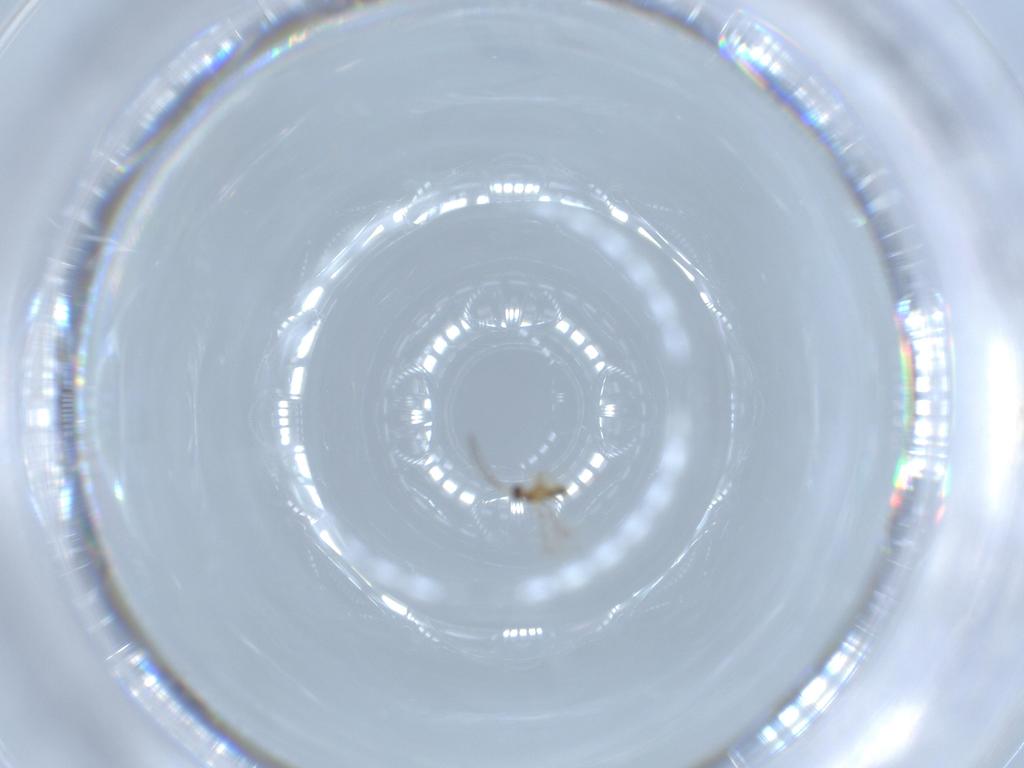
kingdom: Animalia
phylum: Arthropoda
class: Insecta
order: Hymenoptera
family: Mymaridae
